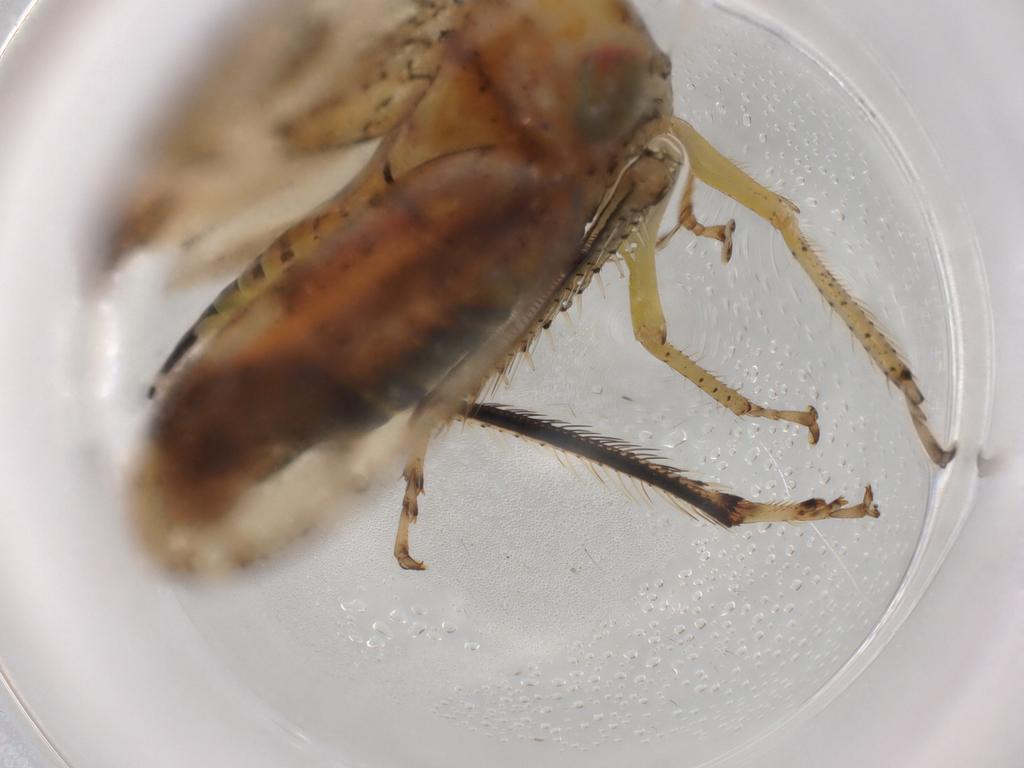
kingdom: Animalia
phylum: Arthropoda
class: Insecta
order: Hemiptera
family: Cicadellidae
